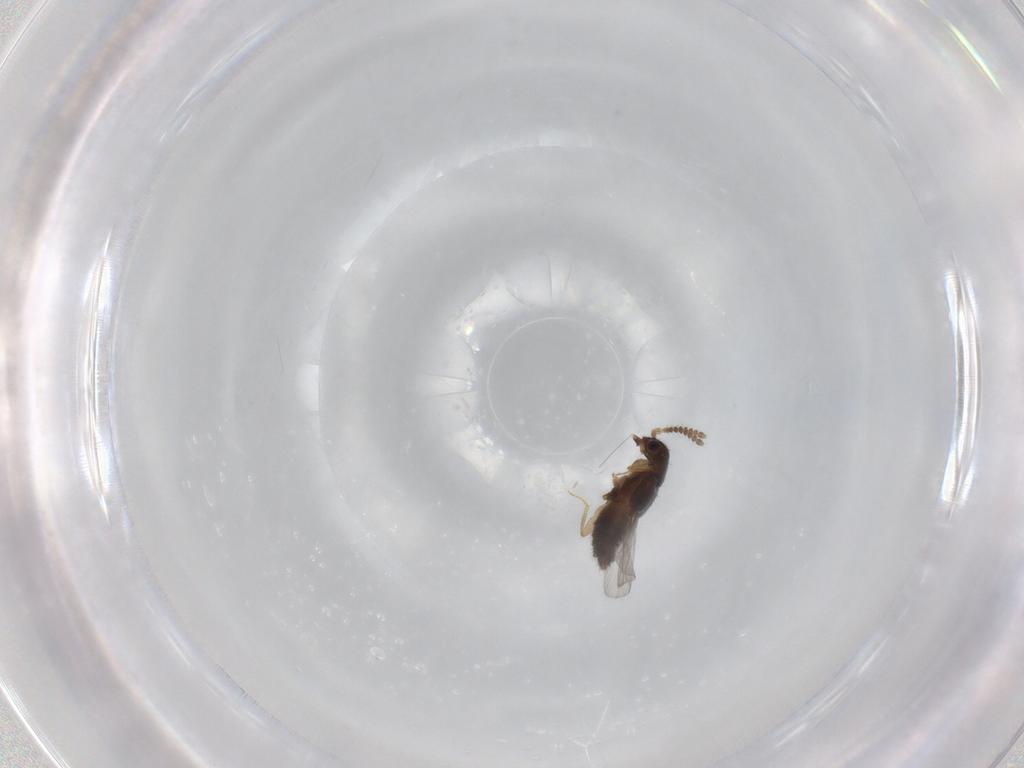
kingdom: Animalia
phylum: Arthropoda
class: Insecta
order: Coleoptera
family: Staphylinidae
